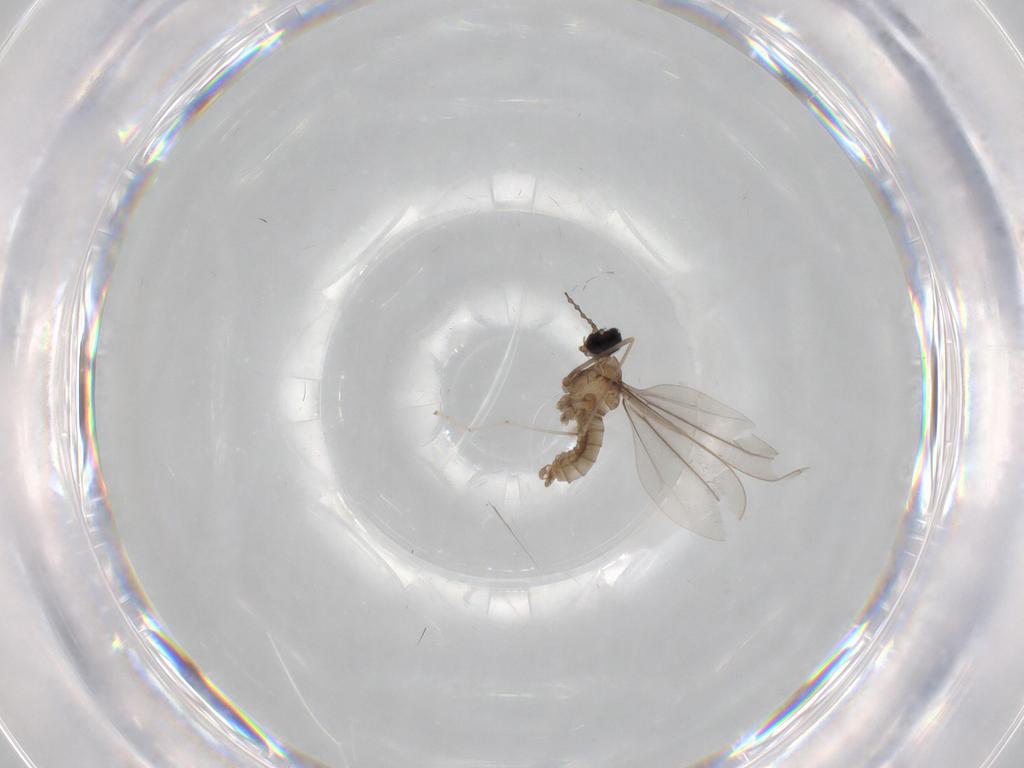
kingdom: Animalia
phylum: Arthropoda
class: Insecta
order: Diptera
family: Cecidomyiidae
